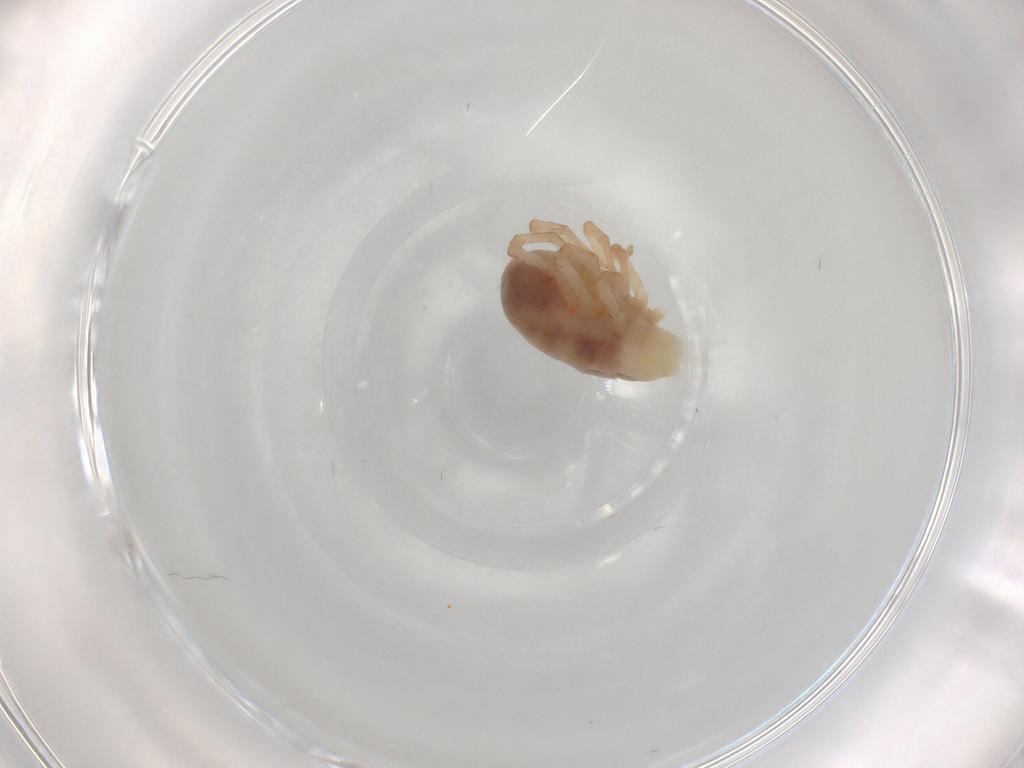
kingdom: Animalia
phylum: Arthropoda
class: Arachnida
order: Trombidiformes
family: Bdellidae
